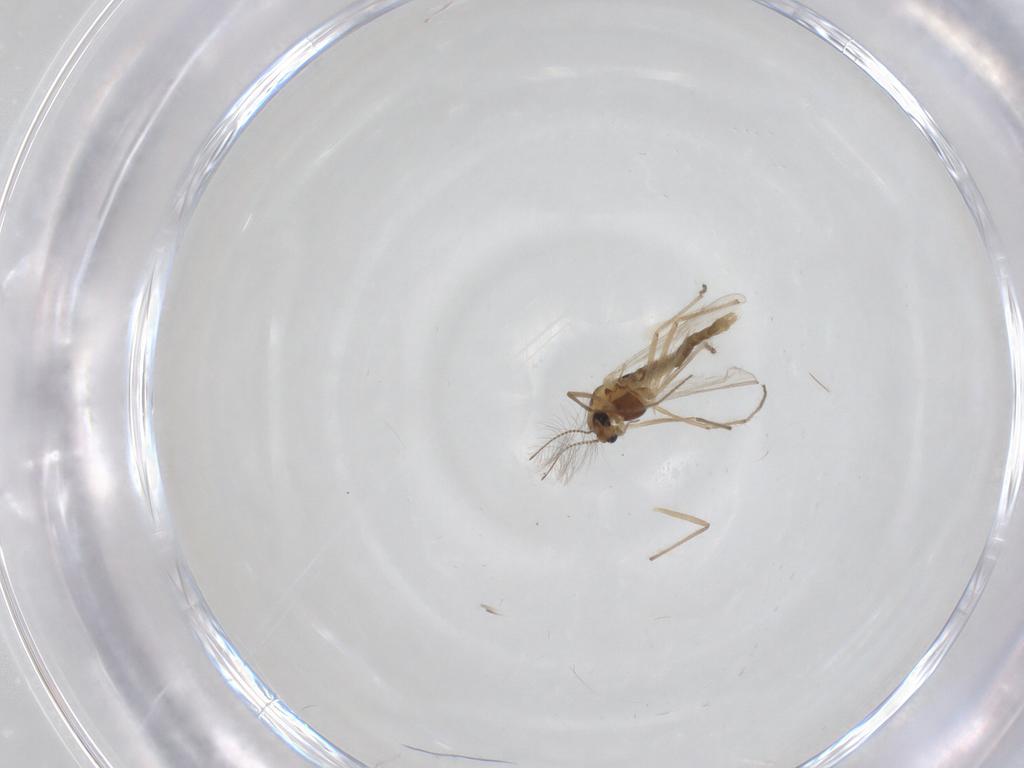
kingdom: Animalia
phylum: Arthropoda
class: Insecta
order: Diptera
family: Chironomidae
